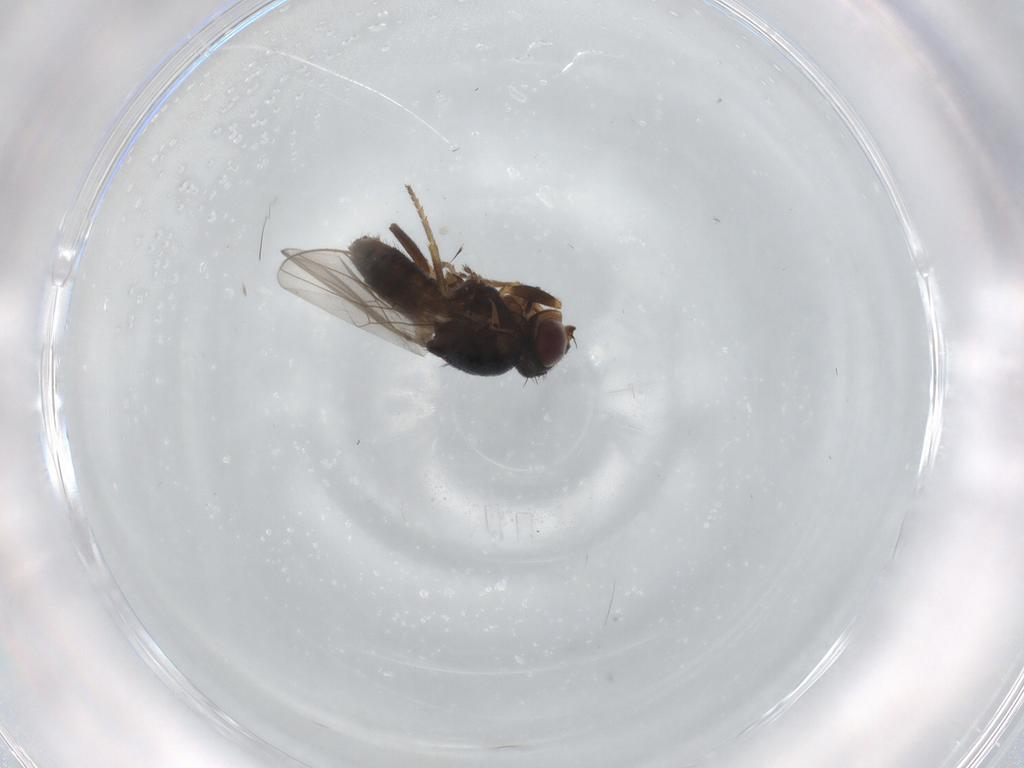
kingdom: Animalia
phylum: Arthropoda
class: Insecta
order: Diptera
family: Chloropidae
